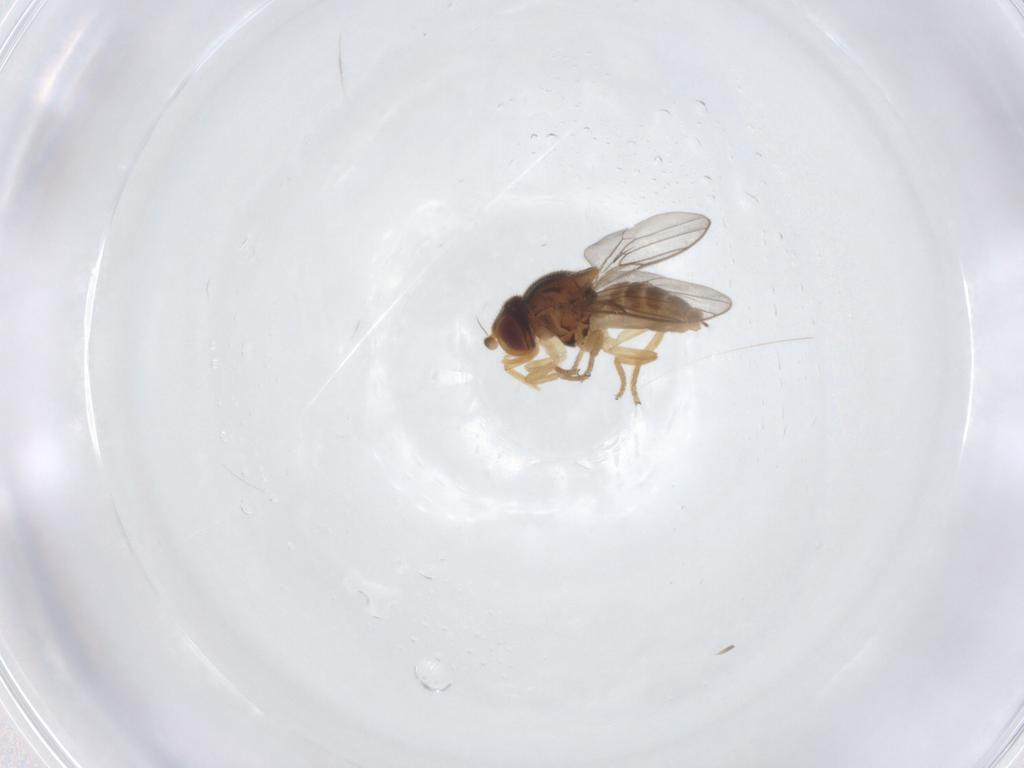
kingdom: Animalia
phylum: Arthropoda
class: Insecta
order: Diptera
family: Chloropidae
